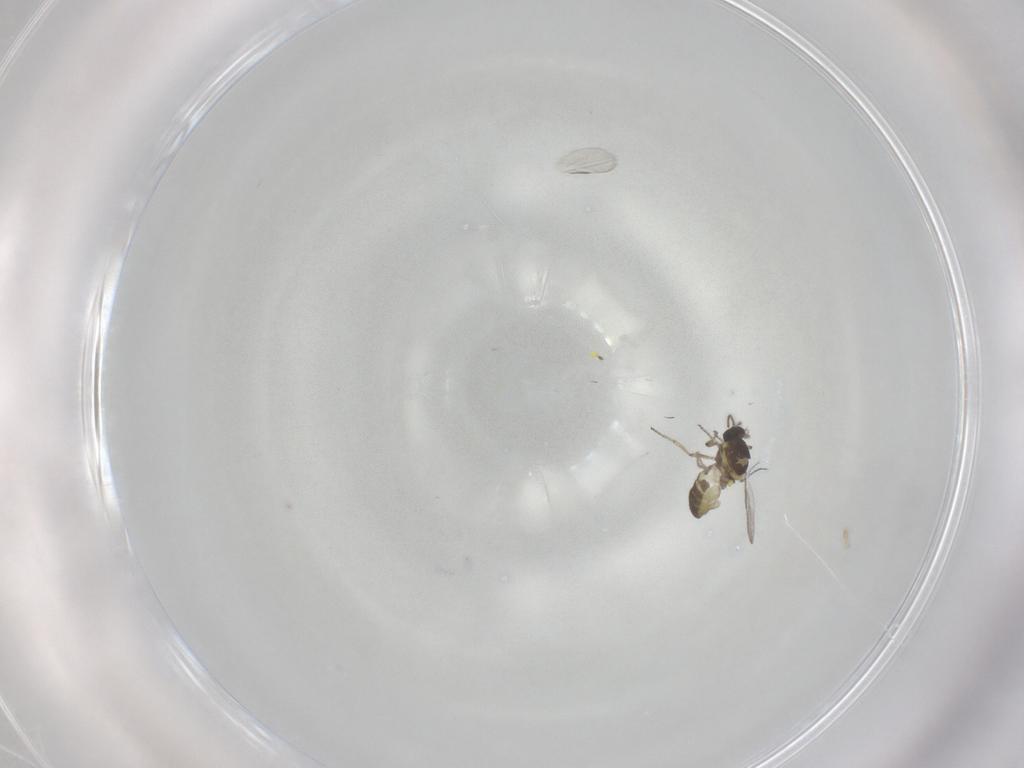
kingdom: Animalia
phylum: Arthropoda
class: Insecta
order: Diptera
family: Ceratopogonidae
